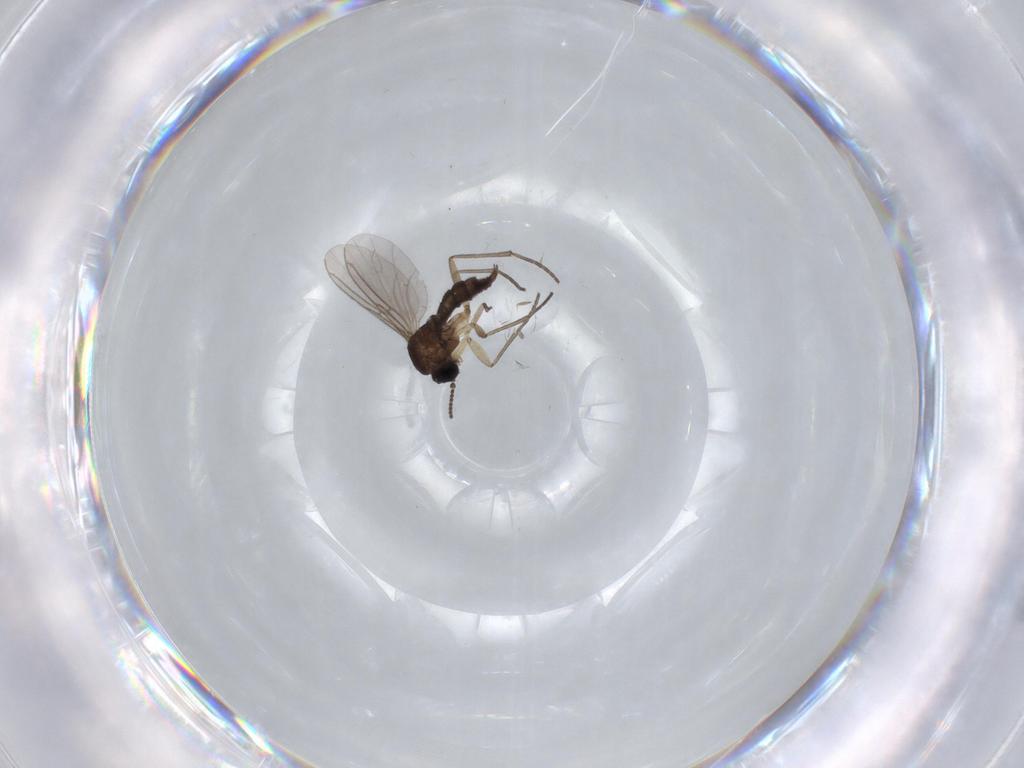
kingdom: Animalia
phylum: Arthropoda
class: Insecta
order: Diptera
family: Sciaridae
